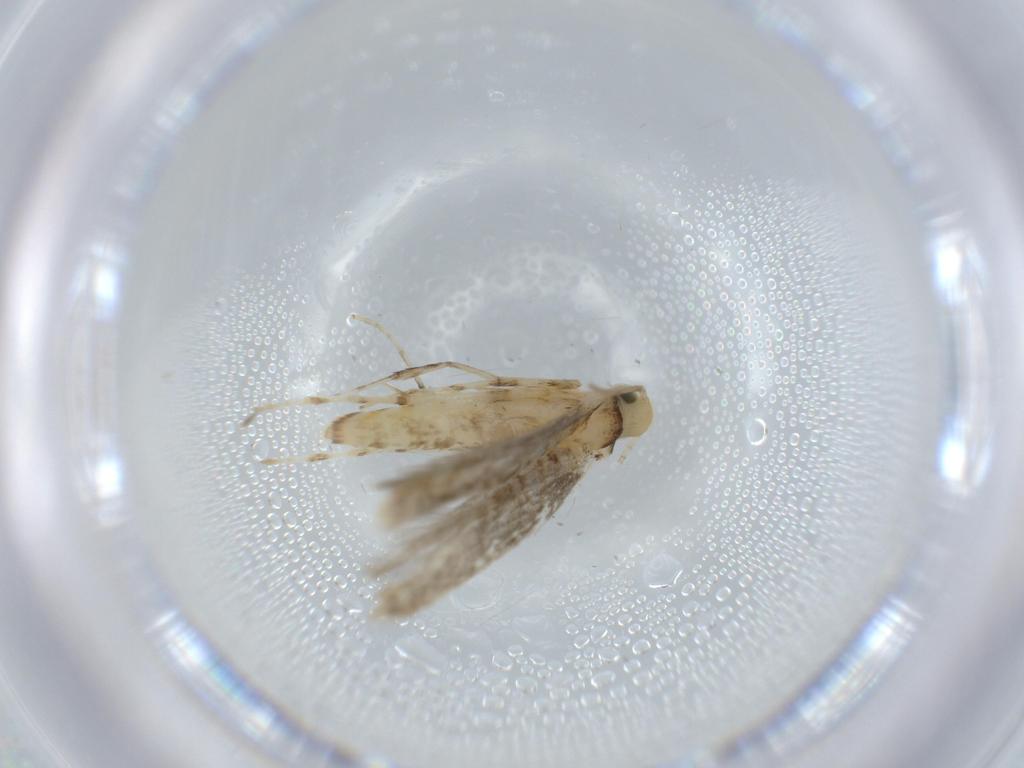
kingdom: Animalia
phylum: Arthropoda
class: Insecta
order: Lepidoptera
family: Gracillariidae
